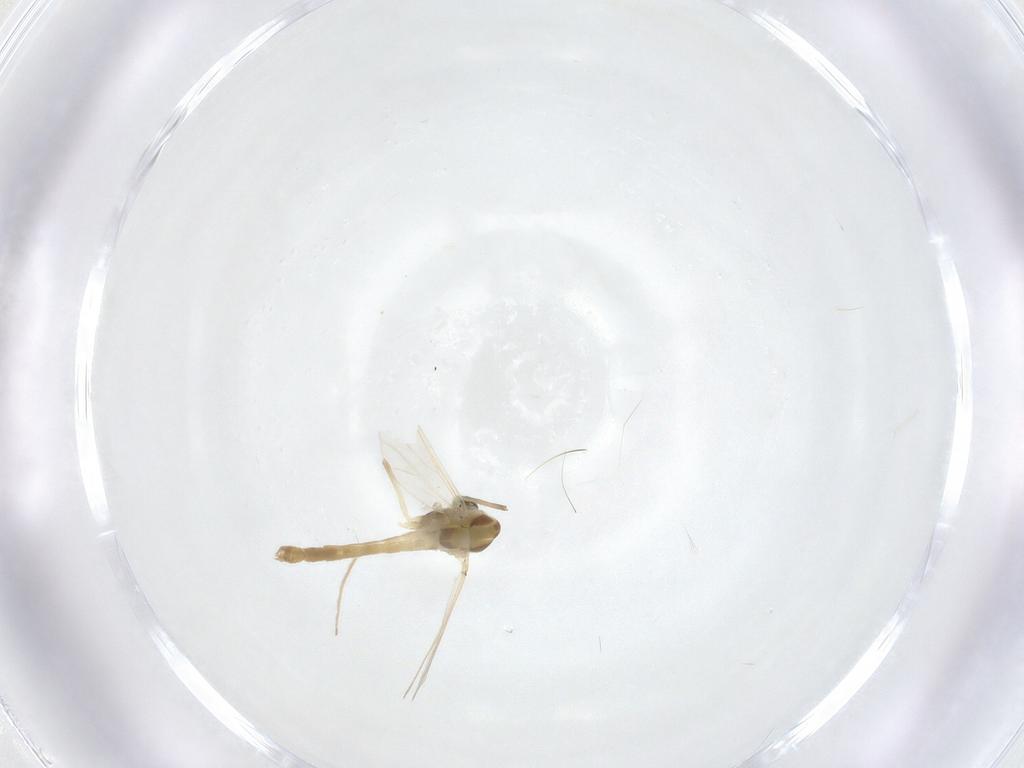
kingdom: Animalia
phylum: Arthropoda
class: Insecta
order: Diptera
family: Chironomidae
